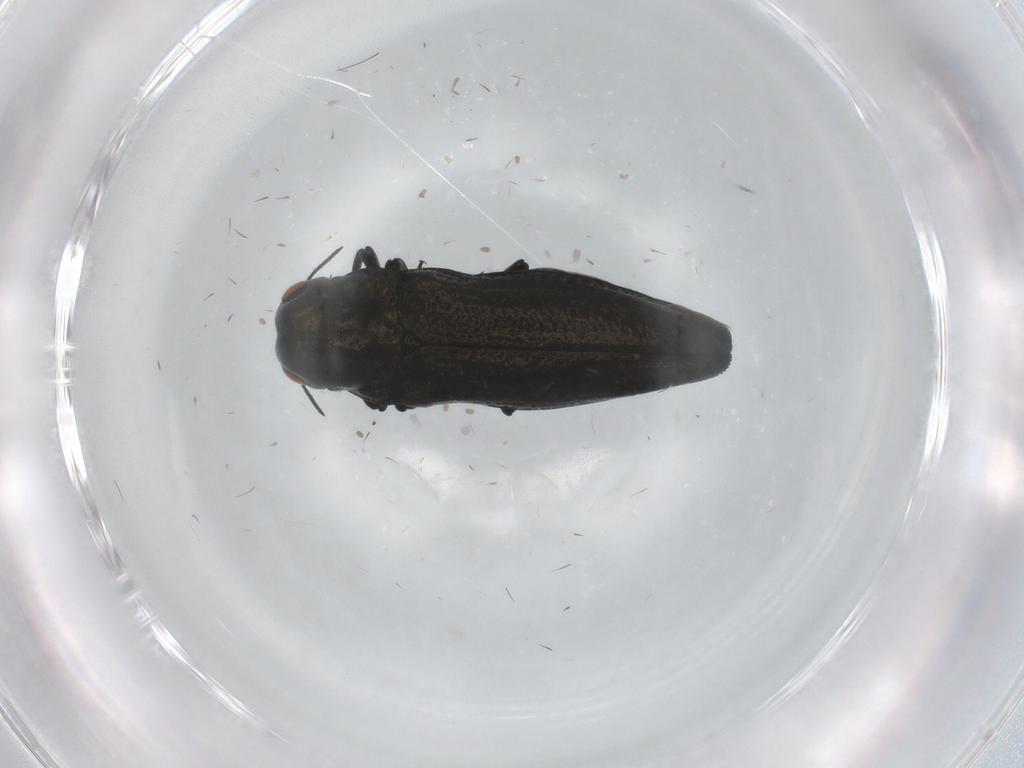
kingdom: Animalia
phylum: Arthropoda
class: Insecta
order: Coleoptera
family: Buprestidae
